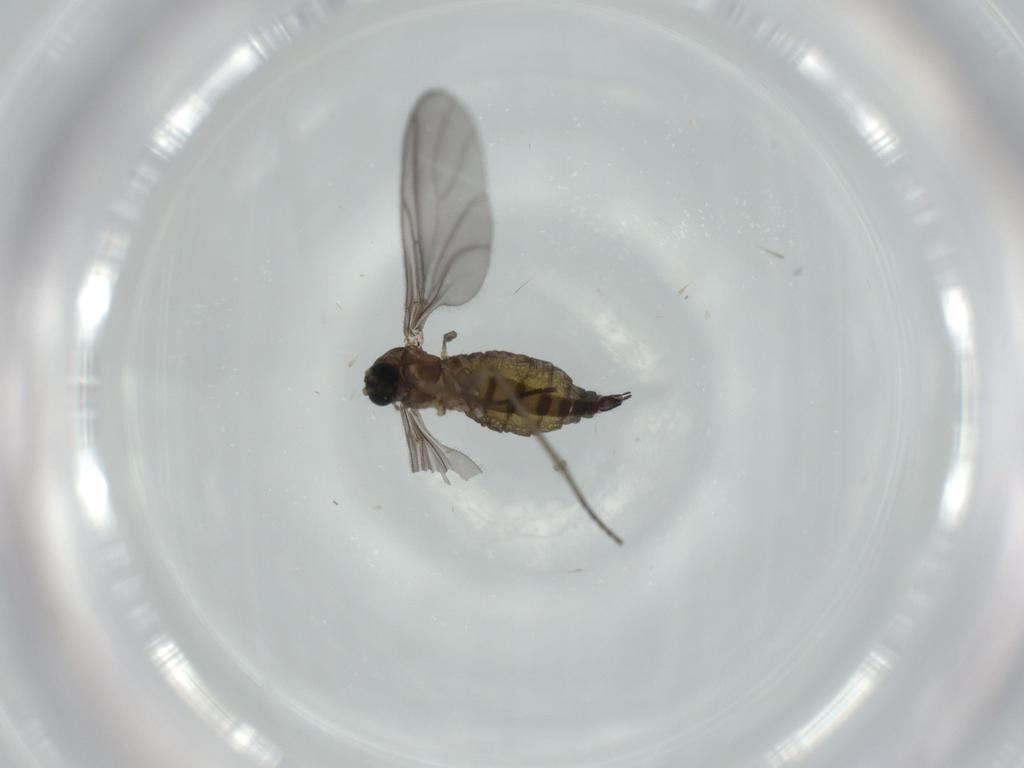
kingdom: Animalia
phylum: Arthropoda
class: Insecta
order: Diptera
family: Sciaridae
